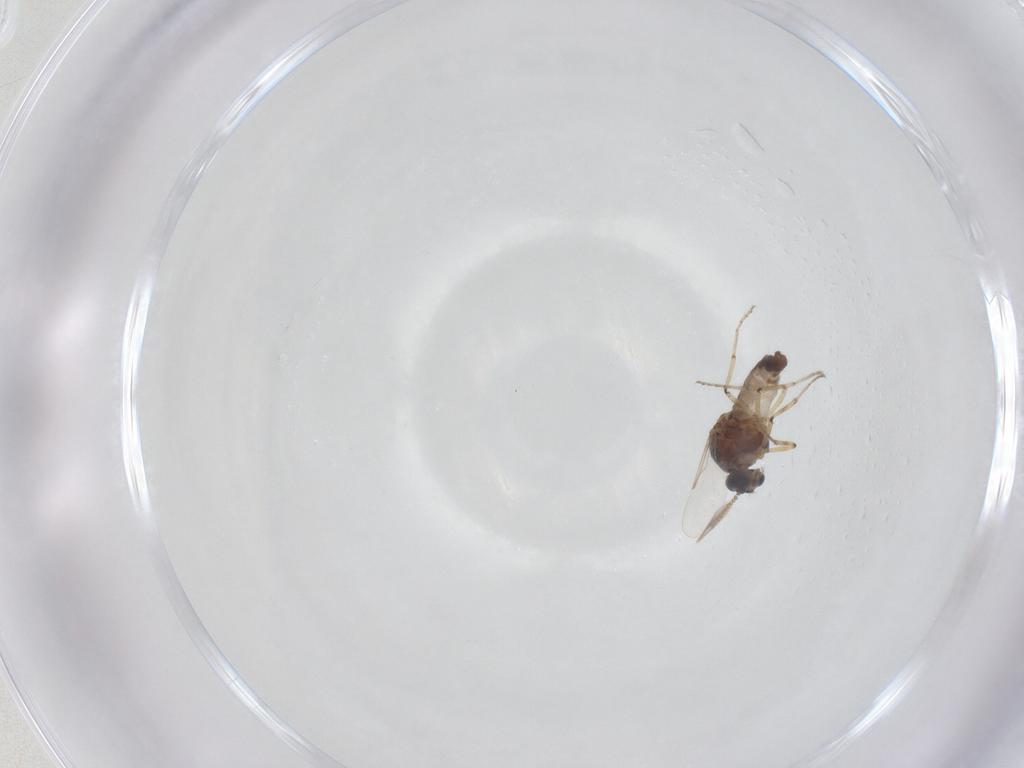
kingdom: Animalia
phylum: Arthropoda
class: Insecta
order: Diptera
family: Ceratopogonidae
